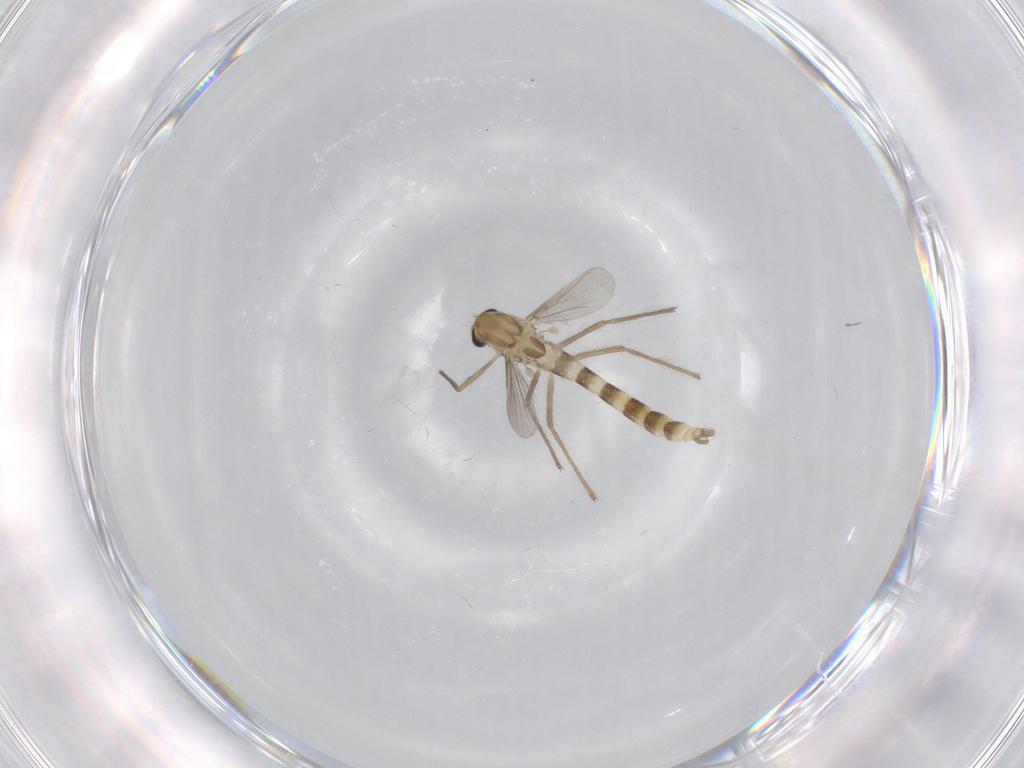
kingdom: Animalia
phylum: Arthropoda
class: Insecta
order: Diptera
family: Chironomidae
